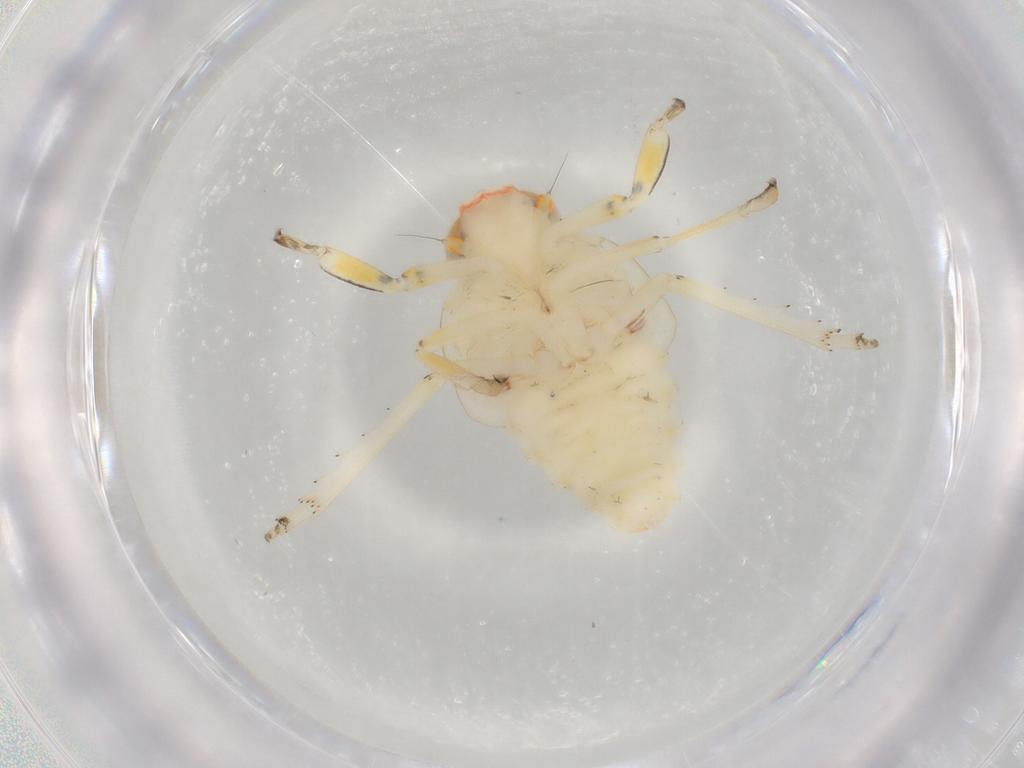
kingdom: Animalia
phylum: Arthropoda
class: Insecta
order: Hemiptera
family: Issidae
